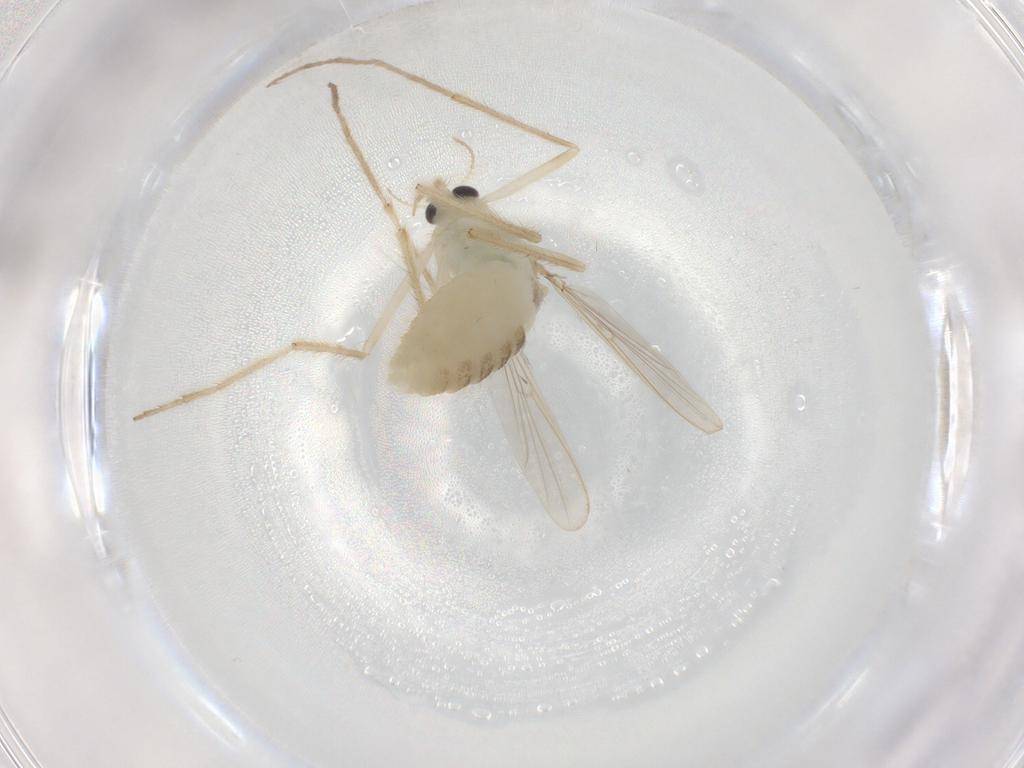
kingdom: Animalia
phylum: Arthropoda
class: Insecta
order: Diptera
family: Chironomidae
